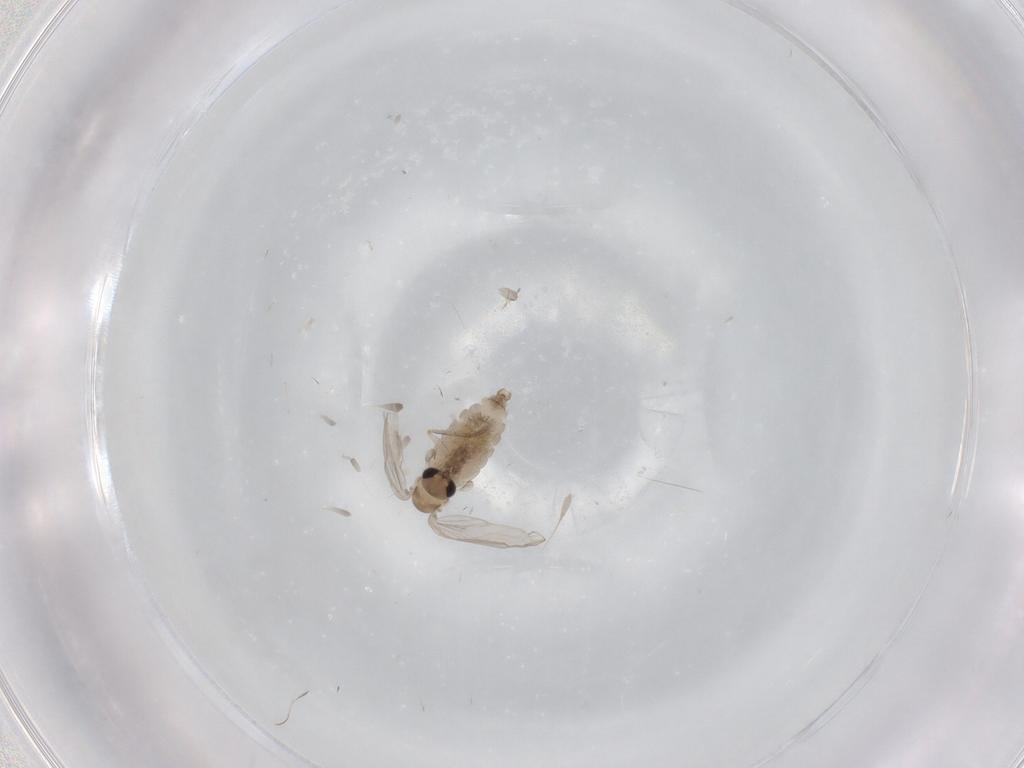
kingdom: Animalia
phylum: Arthropoda
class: Insecta
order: Diptera
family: Psychodidae
